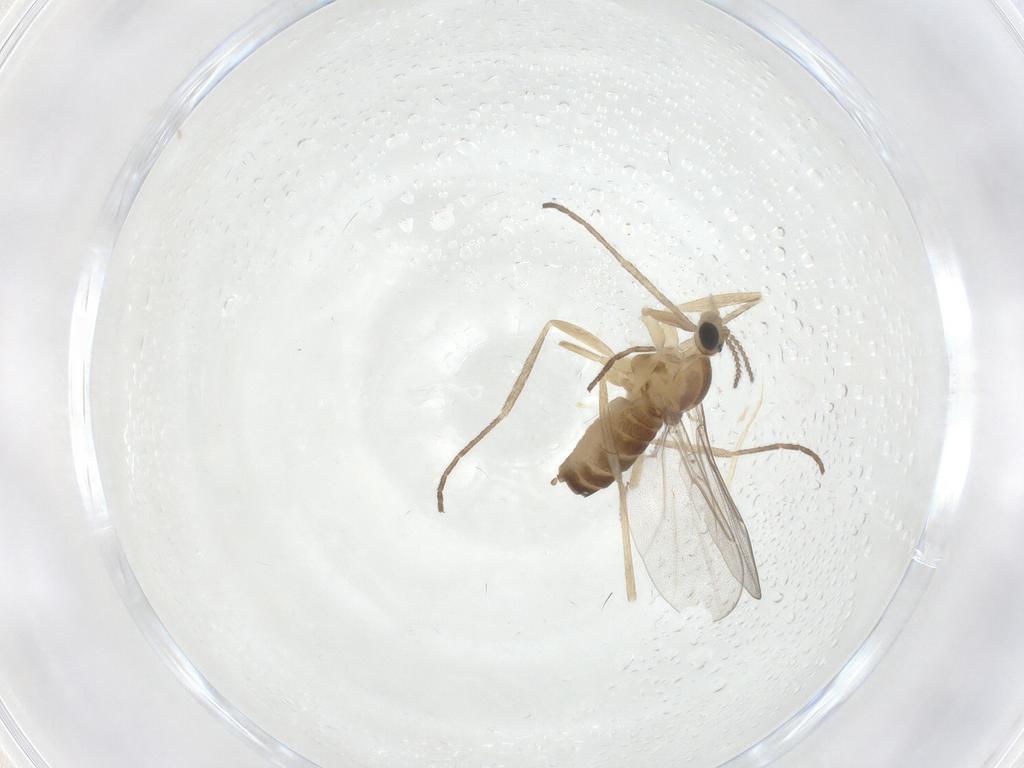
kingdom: Animalia
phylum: Arthropoda
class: Insecta
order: Diptera
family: Cecidomyiidae
